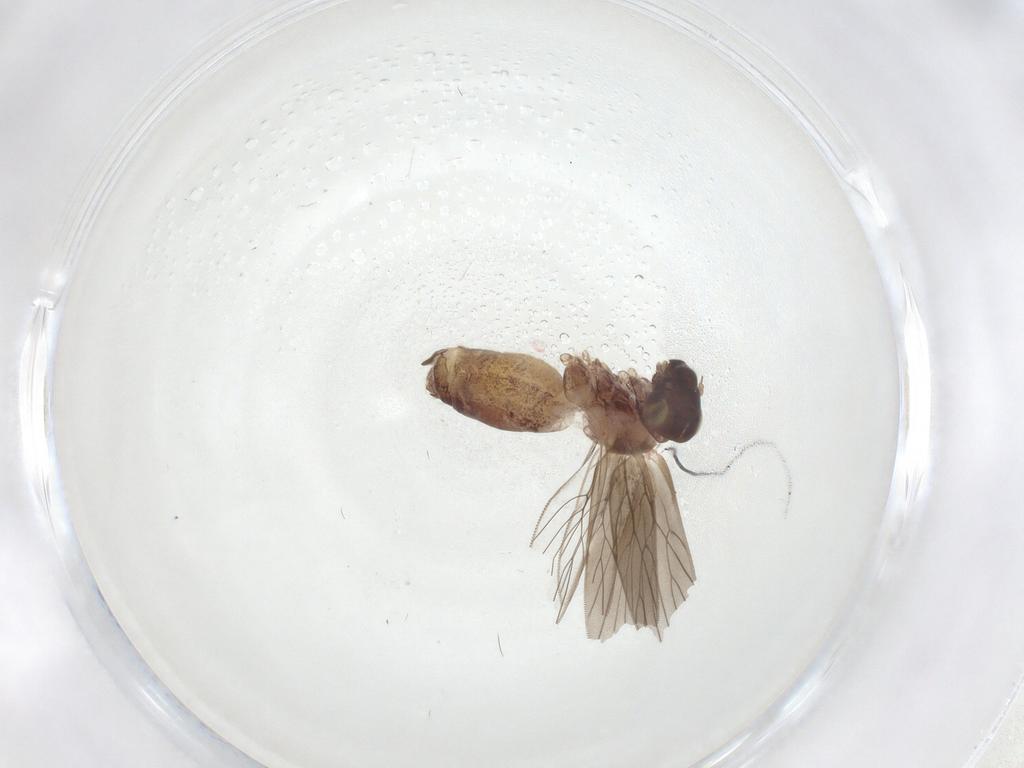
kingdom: Animalia
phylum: Arthropoda
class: Insecta
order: Psocodea
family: Lepidopsocidae
